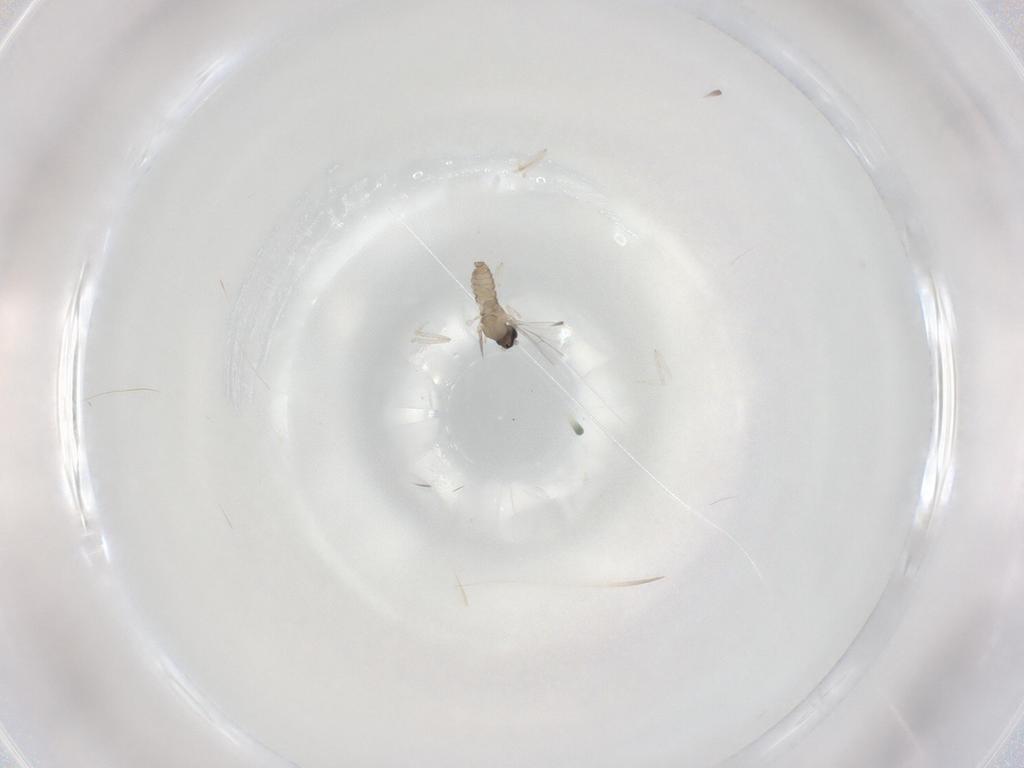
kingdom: Animalia
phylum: Arthropoda
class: Insecta
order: Diptera
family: Cecidomyiidae
